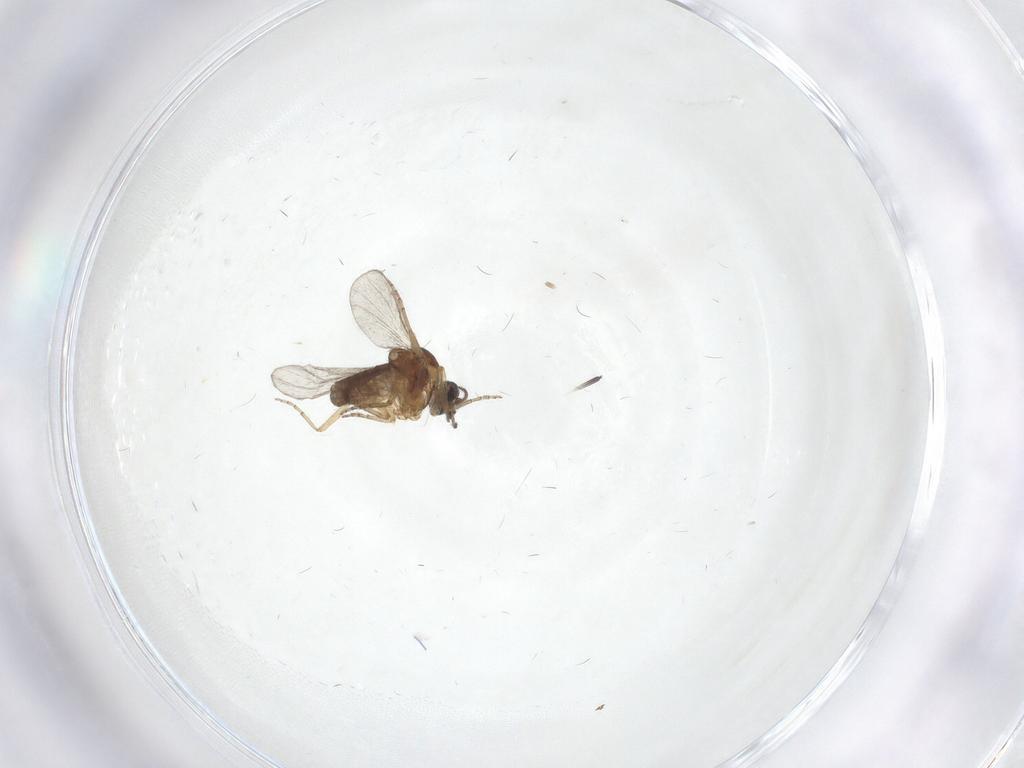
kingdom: Animalia
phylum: Arthropoda
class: Insecta
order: Diptera
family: Ceratopogonidae
